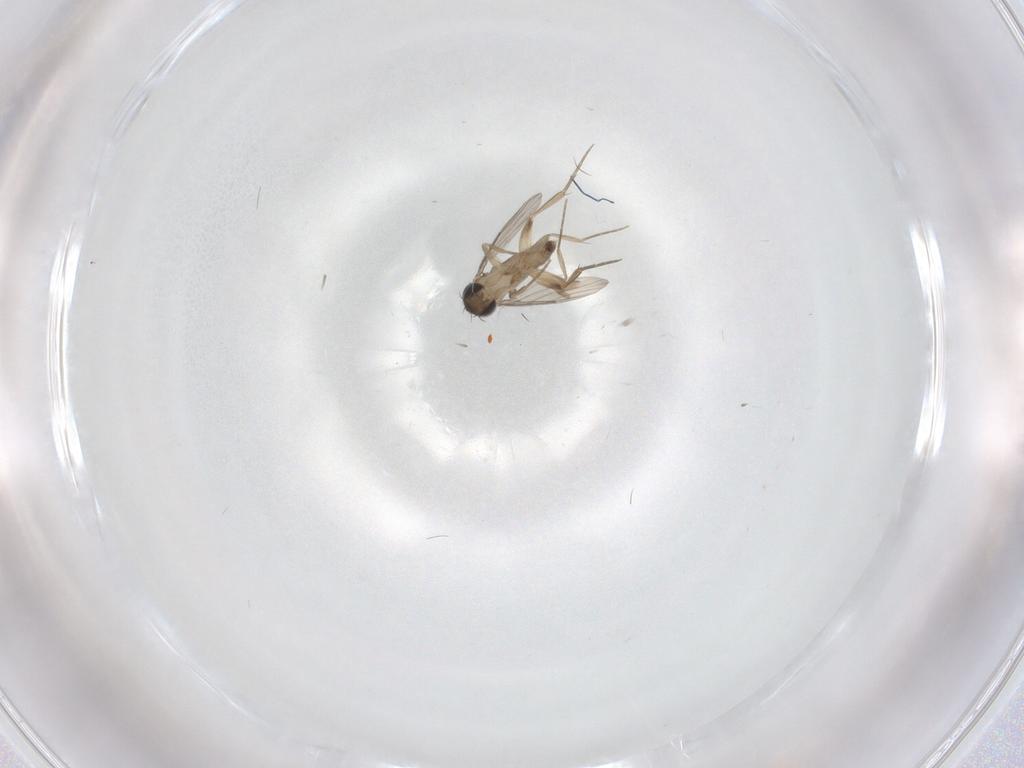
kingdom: Animalia
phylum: Arthropoda
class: Insecta
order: Diptera
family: Phoridae
